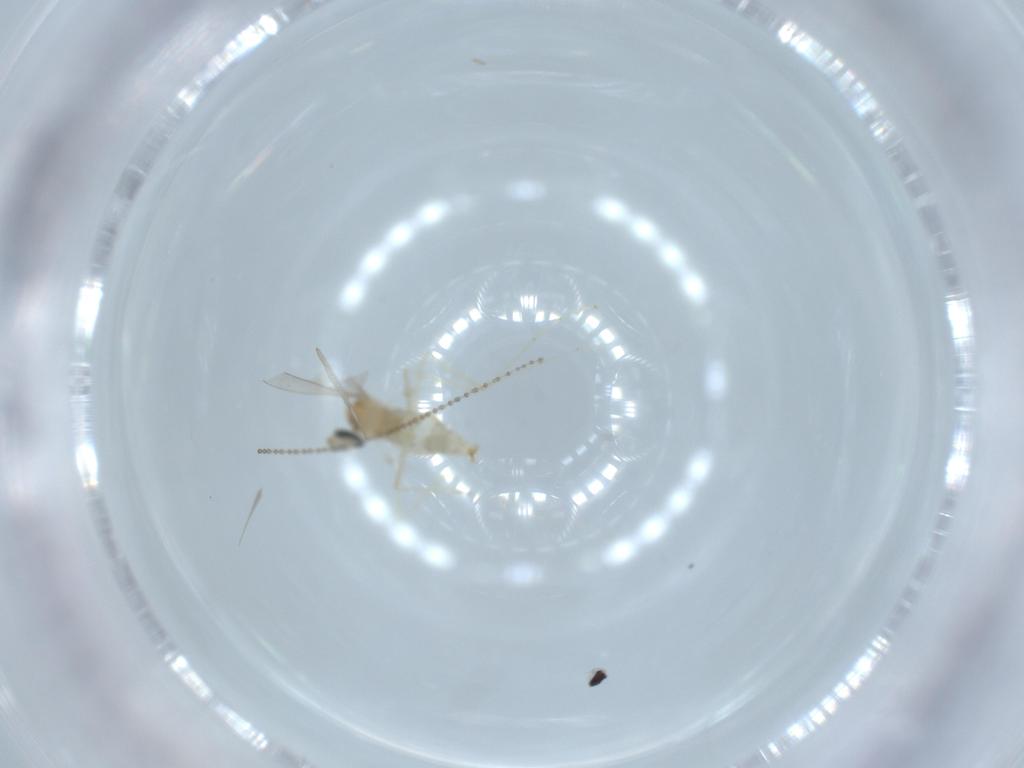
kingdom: Animalia
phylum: Arthropoda
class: Insecta
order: Diptera
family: Cecidomyiidae
